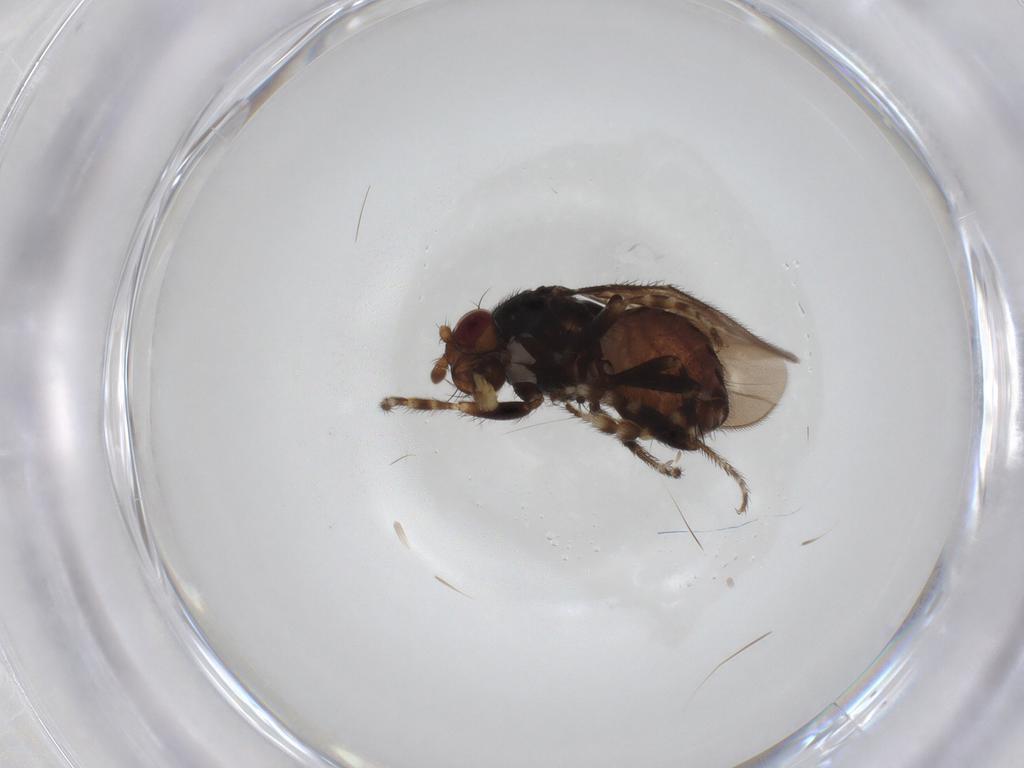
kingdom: Animalia
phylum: Arthropoda
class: Insecta
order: Diptera
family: Sphaeroceridae
